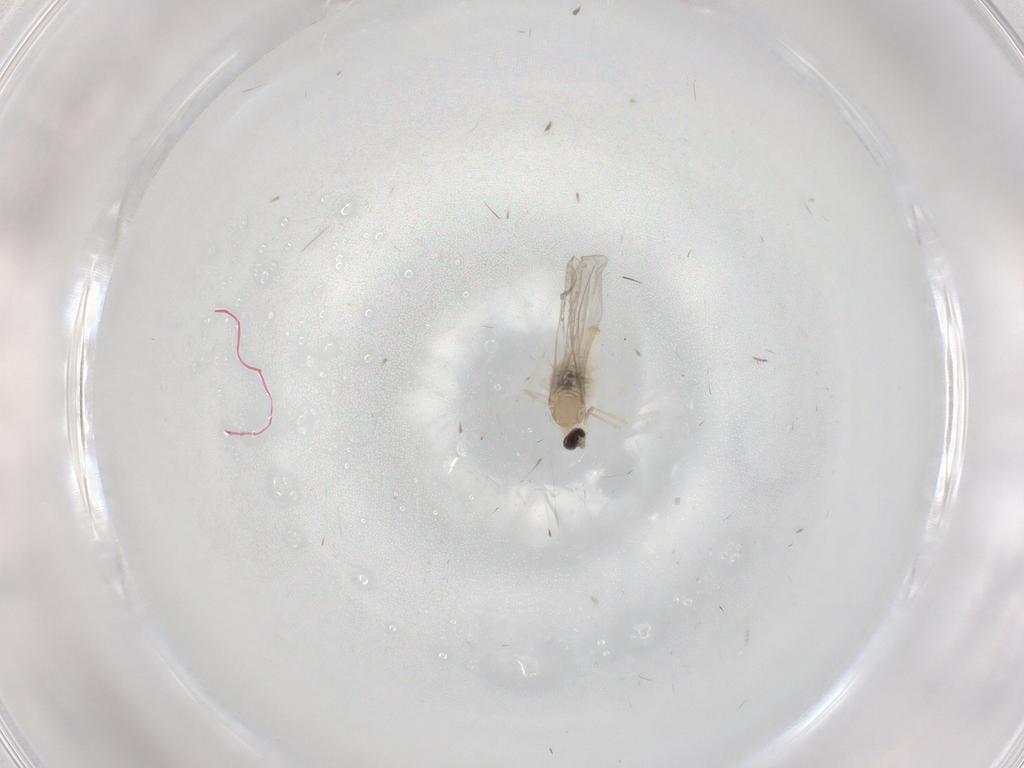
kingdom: Animalia
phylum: Arthropoda
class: Insecta
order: Diptera
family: Cecidomyiidae
